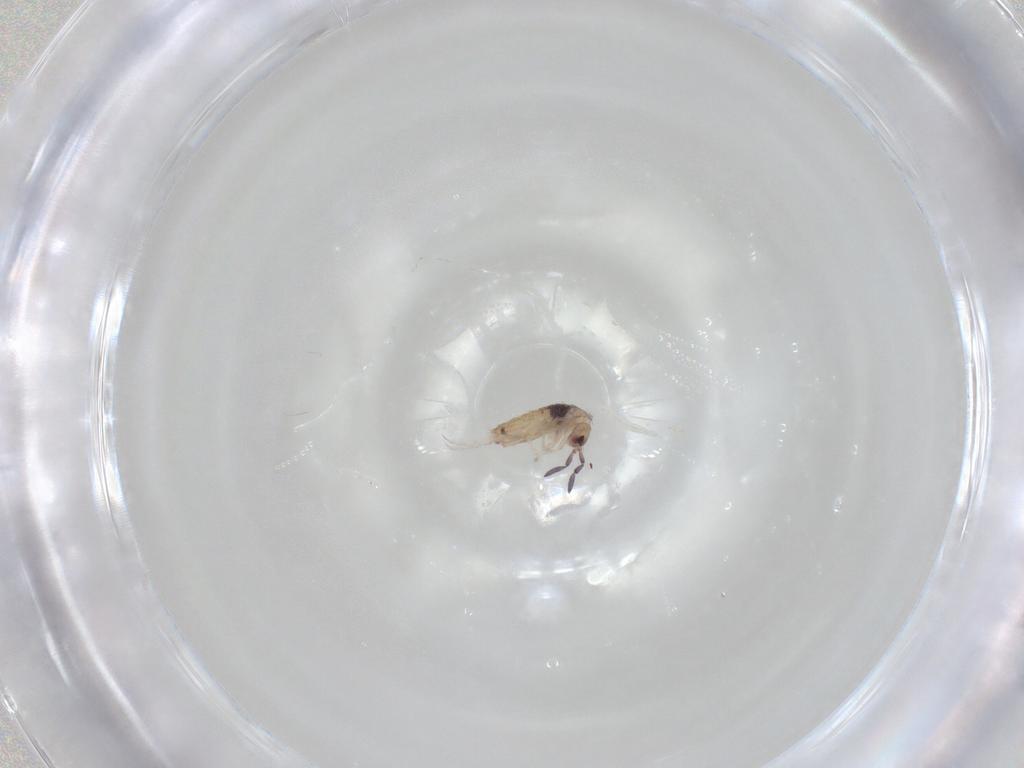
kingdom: Animalia
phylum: Arthropoda
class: Collembola
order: Entomobryomorpha
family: Entomobryidae
